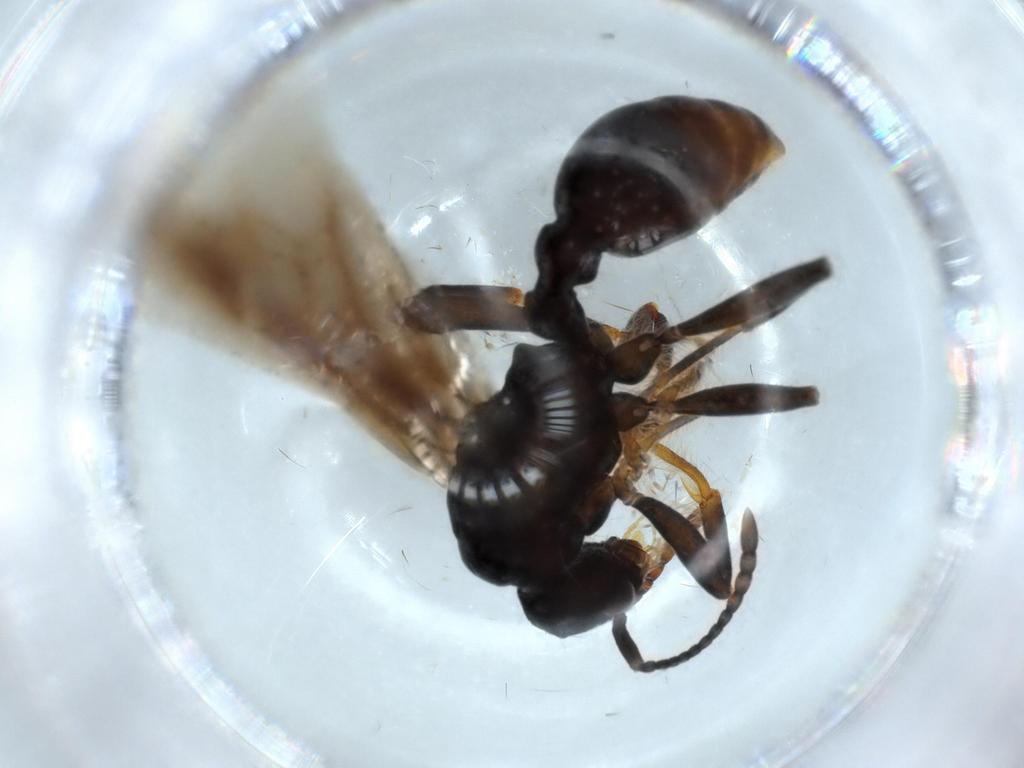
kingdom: Animalia
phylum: Arthropoda
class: Insecta
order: Hymenoptera
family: Formicidae
